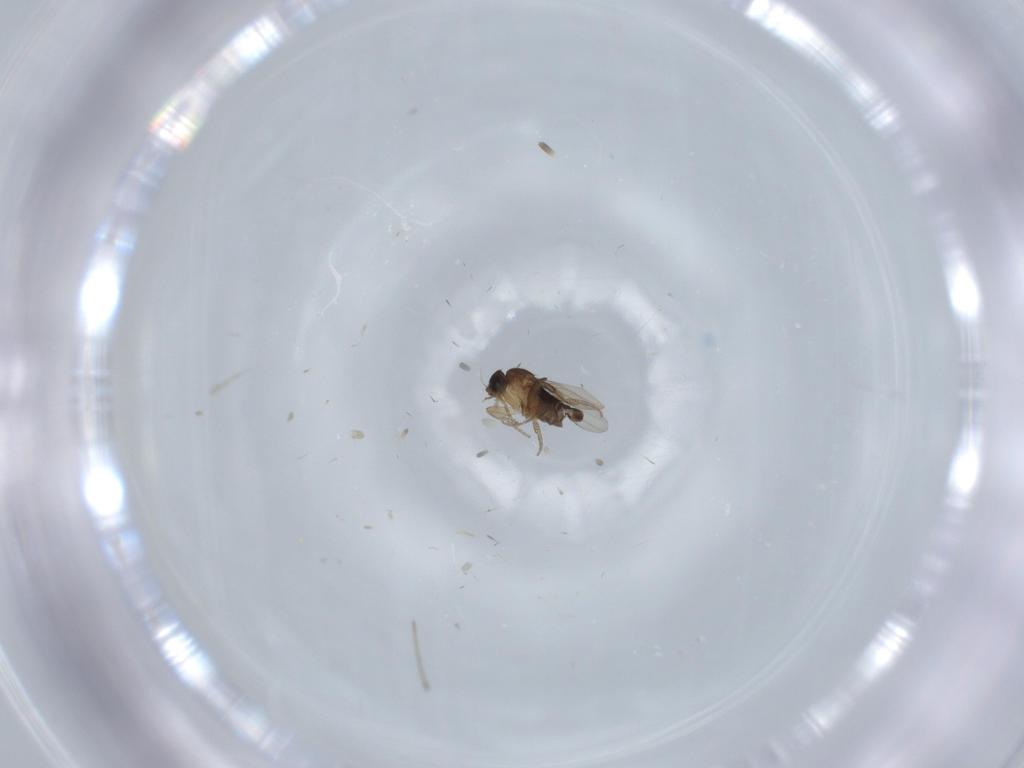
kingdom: Animalia
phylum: Arthropoda
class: Insecta
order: Diptera
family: Phoridae
